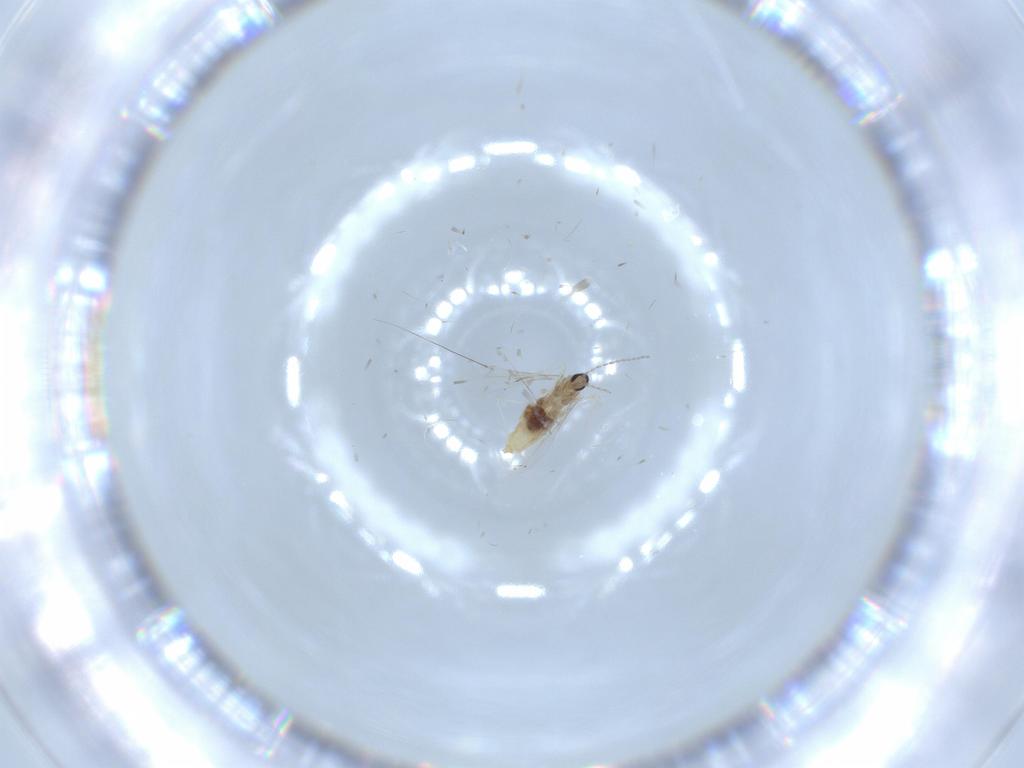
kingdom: Animalia
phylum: Arthropoda
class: Insecta
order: Diptera
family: Cecidomyiidae
